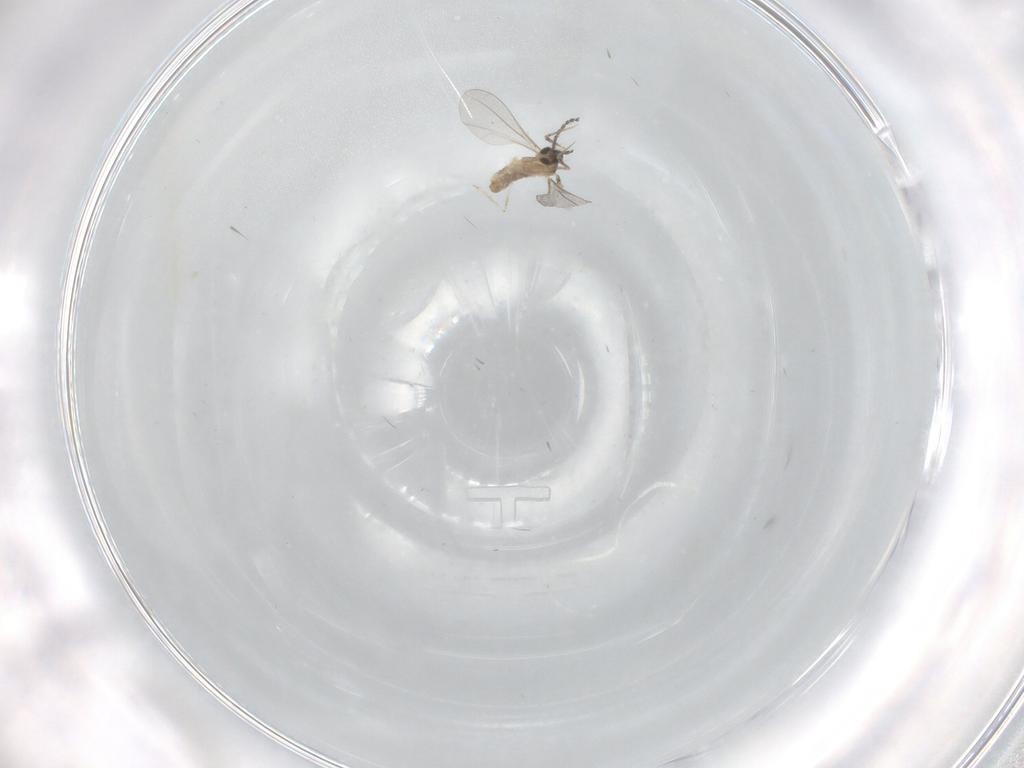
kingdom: Animalia
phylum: Arthropoda
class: Insecta
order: Diptera
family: Cecidomyiidae
